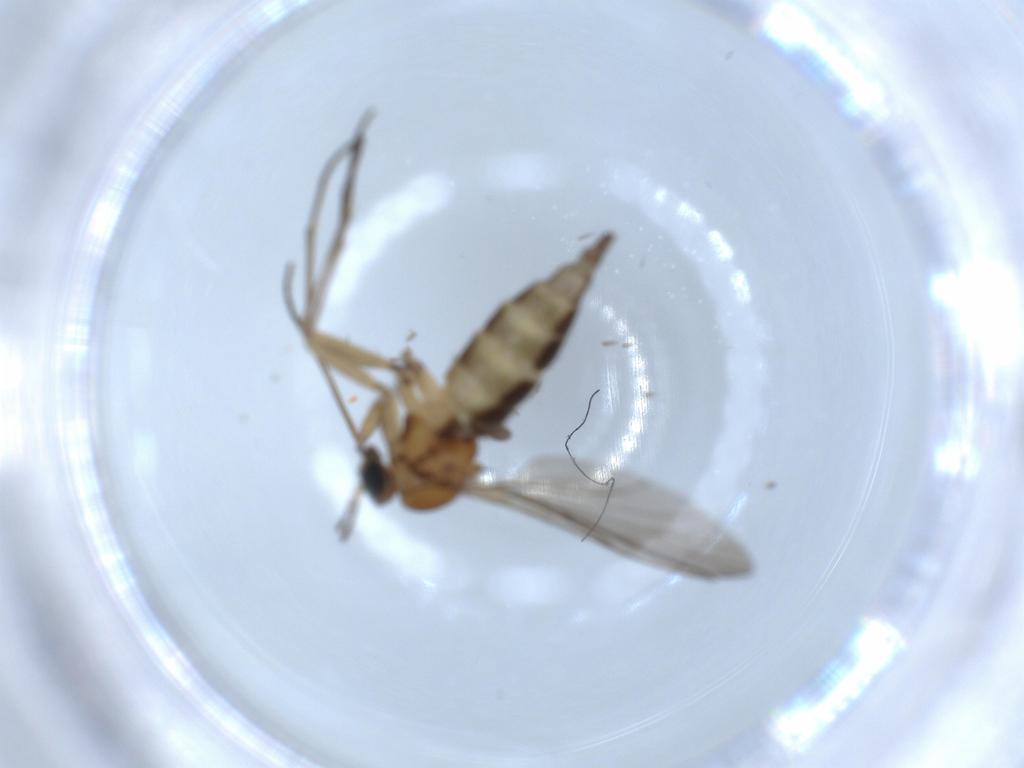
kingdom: Animalia
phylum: Arthropoda
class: Insecta
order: Diptera
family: Sciaridae
